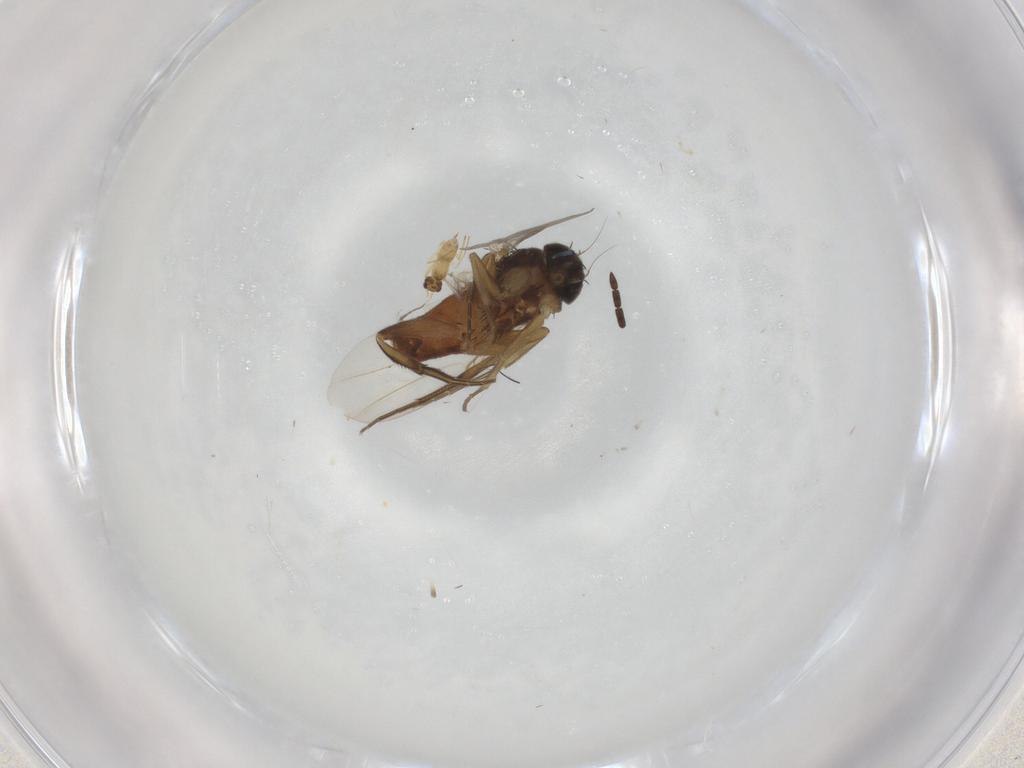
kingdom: Animalia
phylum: Arthropoda
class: Insecta
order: Hymenoptera
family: Braconidae
